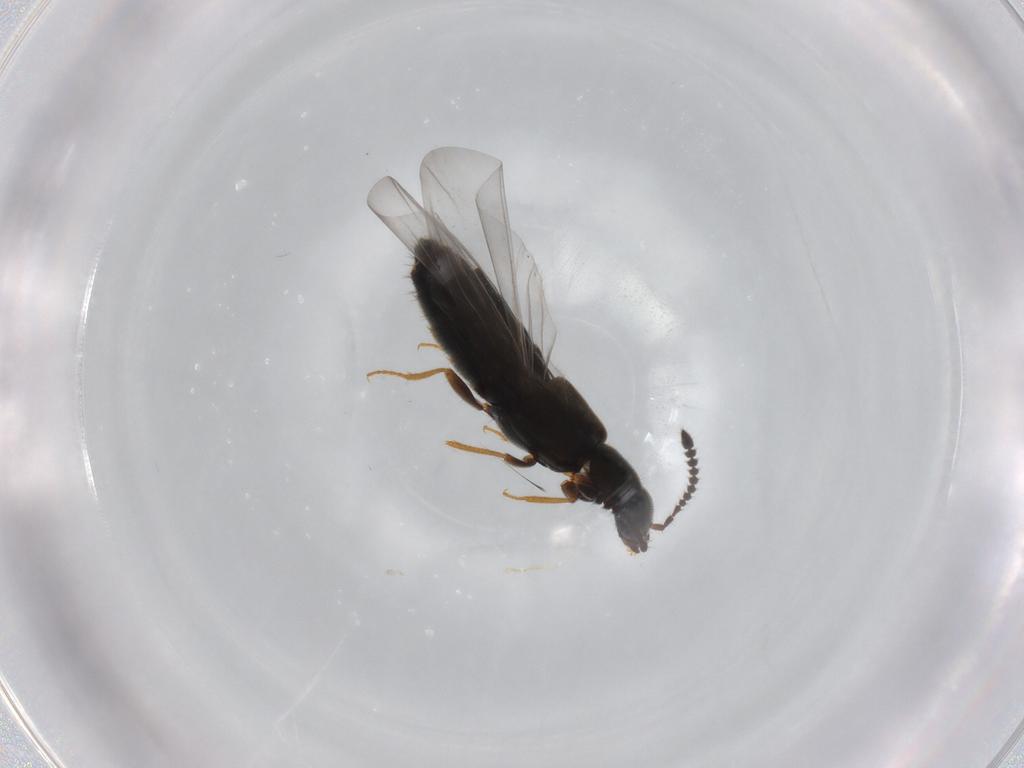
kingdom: Animalia
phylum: Arthropoda
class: Insecta
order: Coleoptera
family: Staphylinidae
